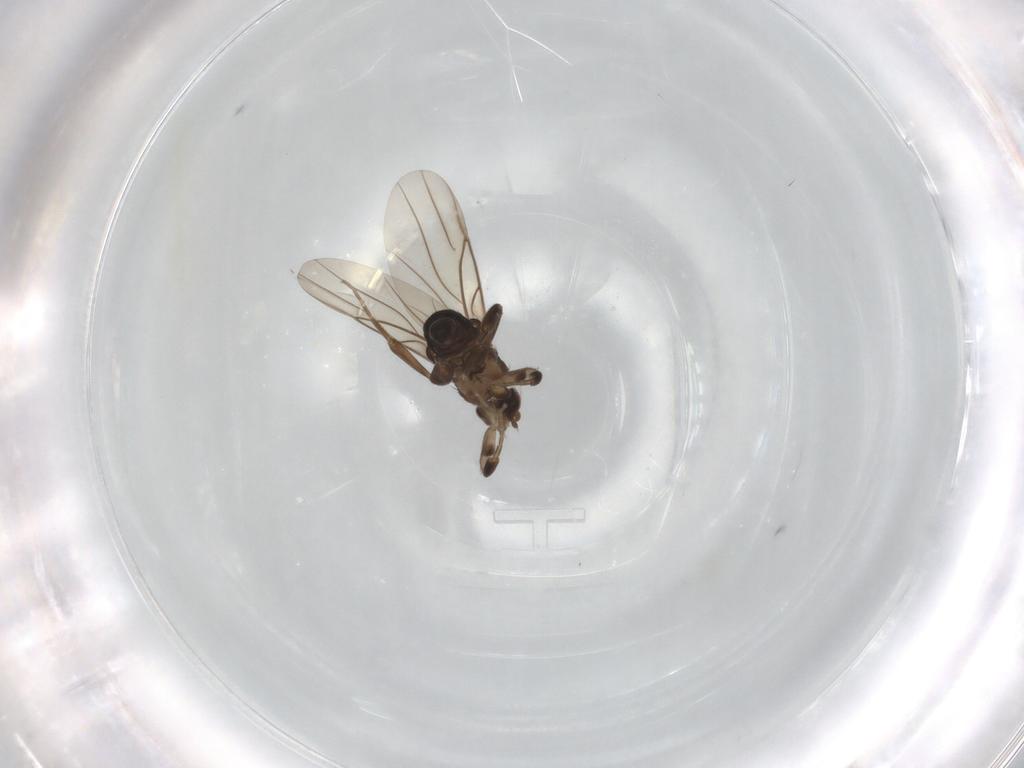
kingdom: Animalia
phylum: Arthropoda
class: Insecta
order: Diptera
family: Phoridae
